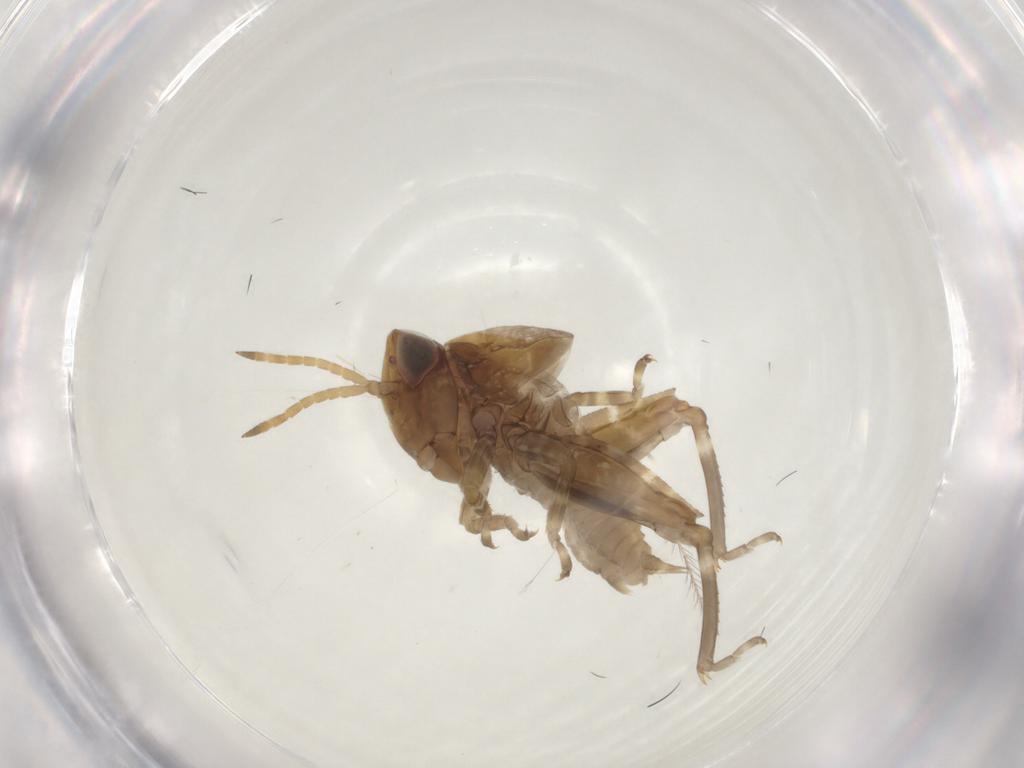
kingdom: Animalia
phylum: Arthropoda
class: Insecta
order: Orthoptera
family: Tetrigidae
